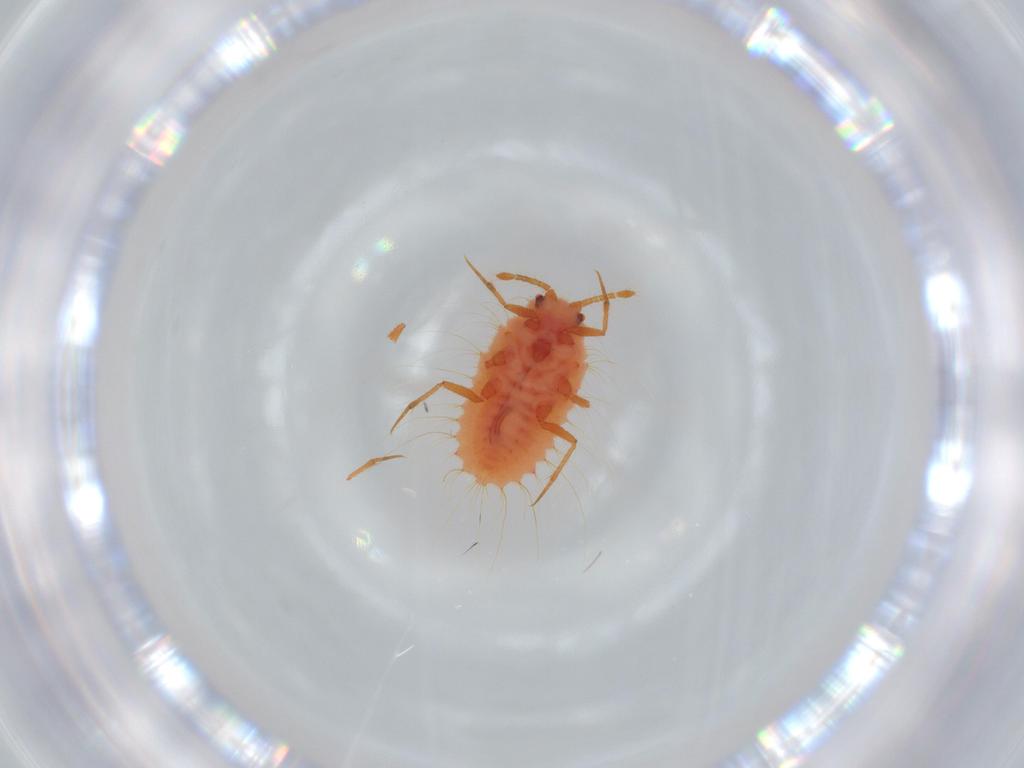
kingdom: Animalia
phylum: Arthropoda
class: Insecta
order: Hemiptera
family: Coccoidea_incertae_sedis
